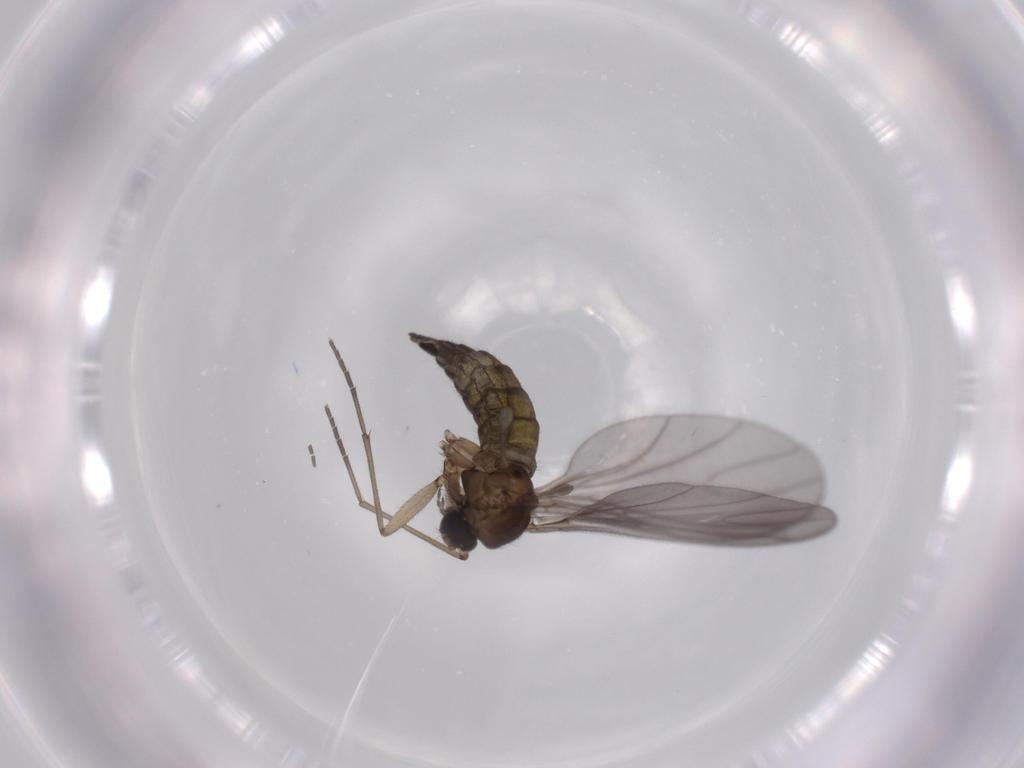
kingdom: Animalia
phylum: Arthropoda
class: Insecta
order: Diptera
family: Sciaridae
